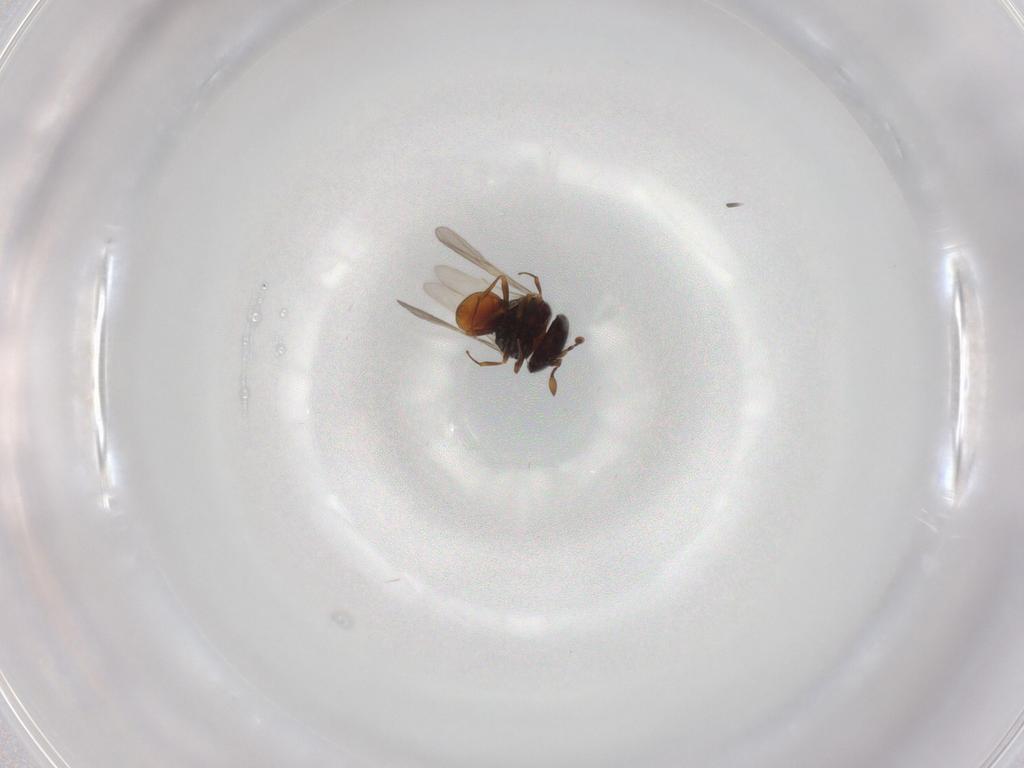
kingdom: Animalia
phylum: Arthropoda
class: Insecta
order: Hymenoptera
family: Scelionidae
